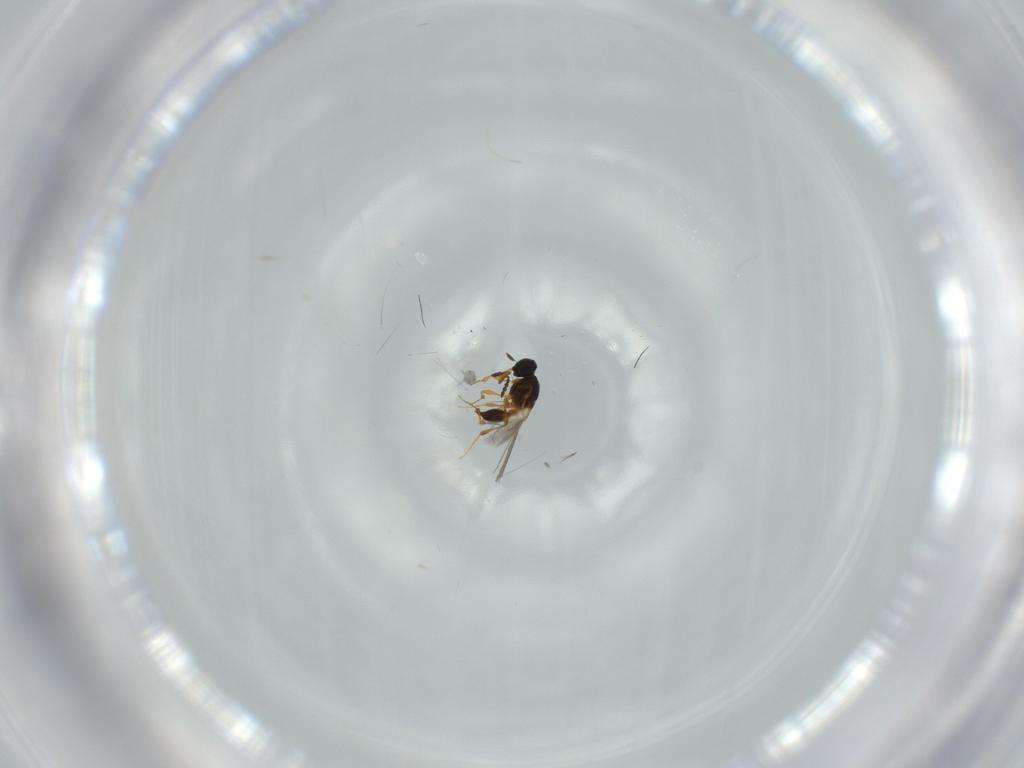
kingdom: Animalia
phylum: Arthropoda
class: Insecta
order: Hymenoptera
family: Platygastridae
